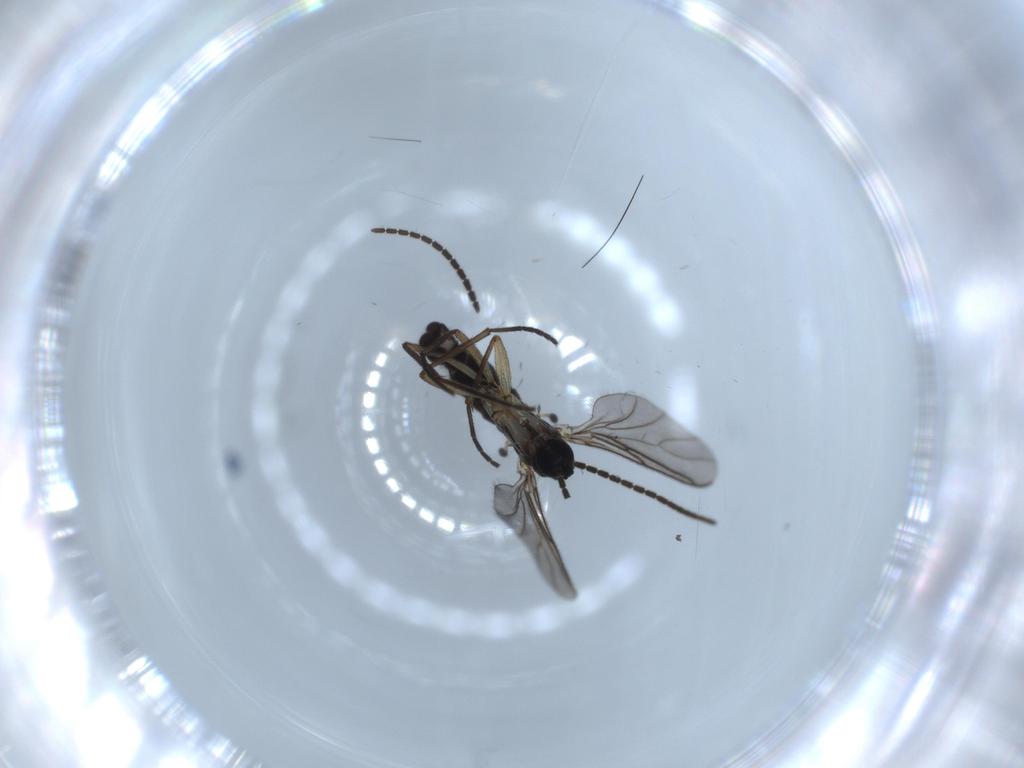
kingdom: Animalia
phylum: Arthropoda
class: Insecta
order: Diptera
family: Sciaridae
